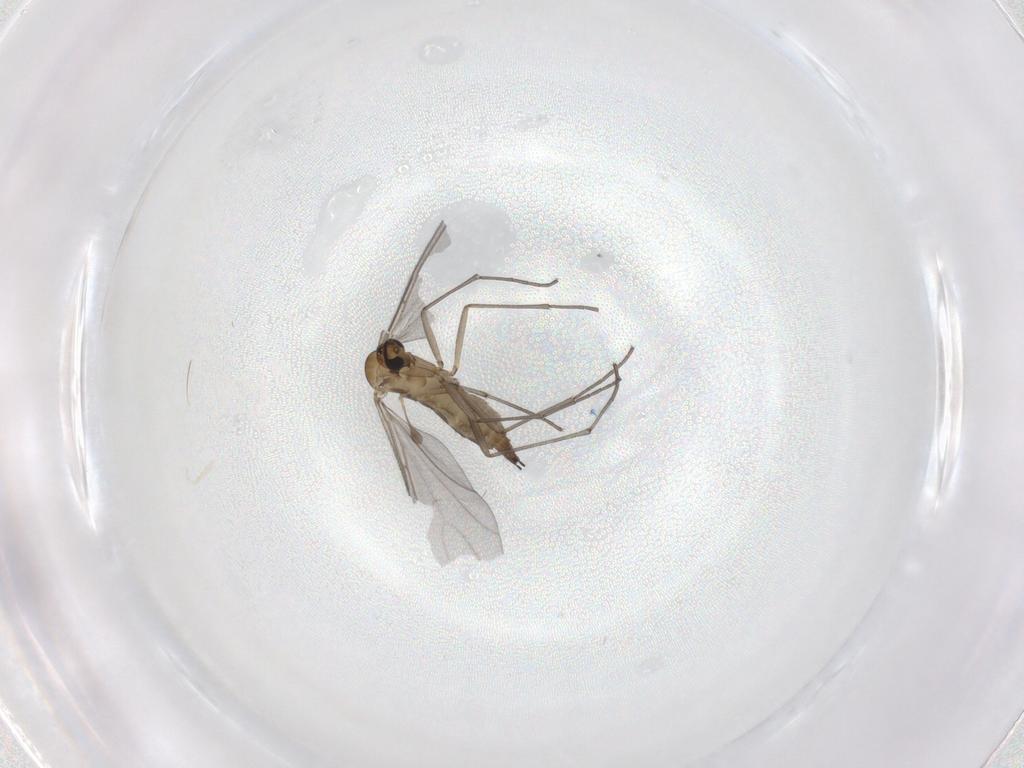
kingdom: Animalia
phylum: Arthropoda
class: Insecta
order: Diptera
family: Sciaridae
